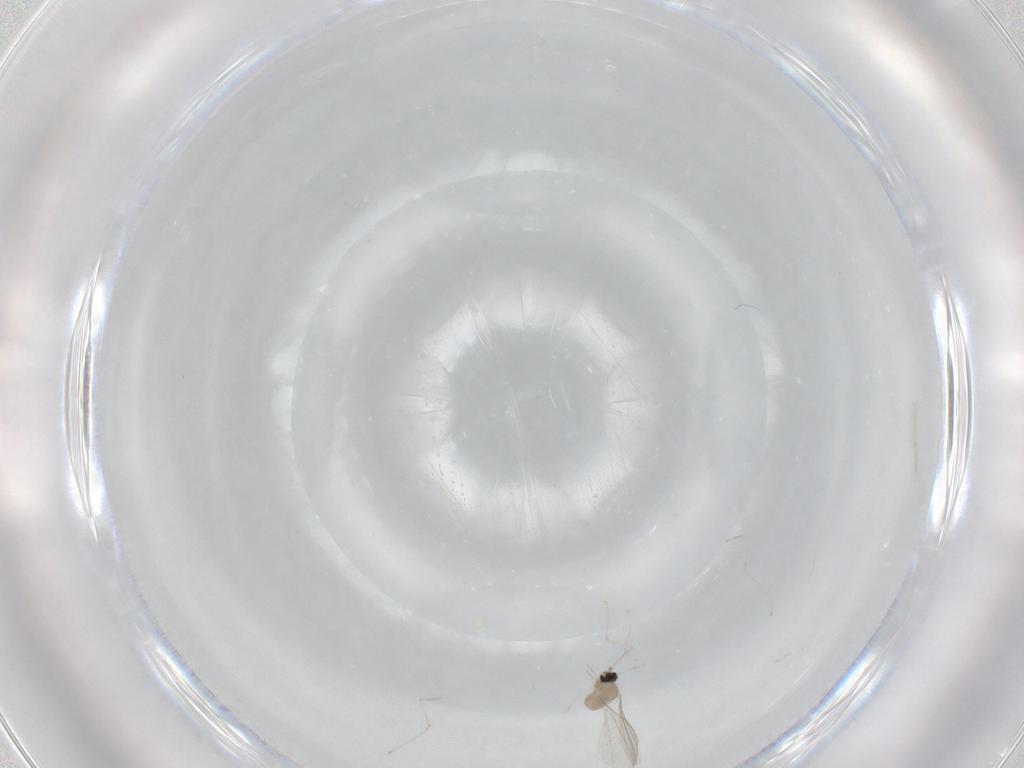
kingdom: Animalia
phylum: Arthropoda
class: Insecta
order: Diptera
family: Cecidomyiidae
